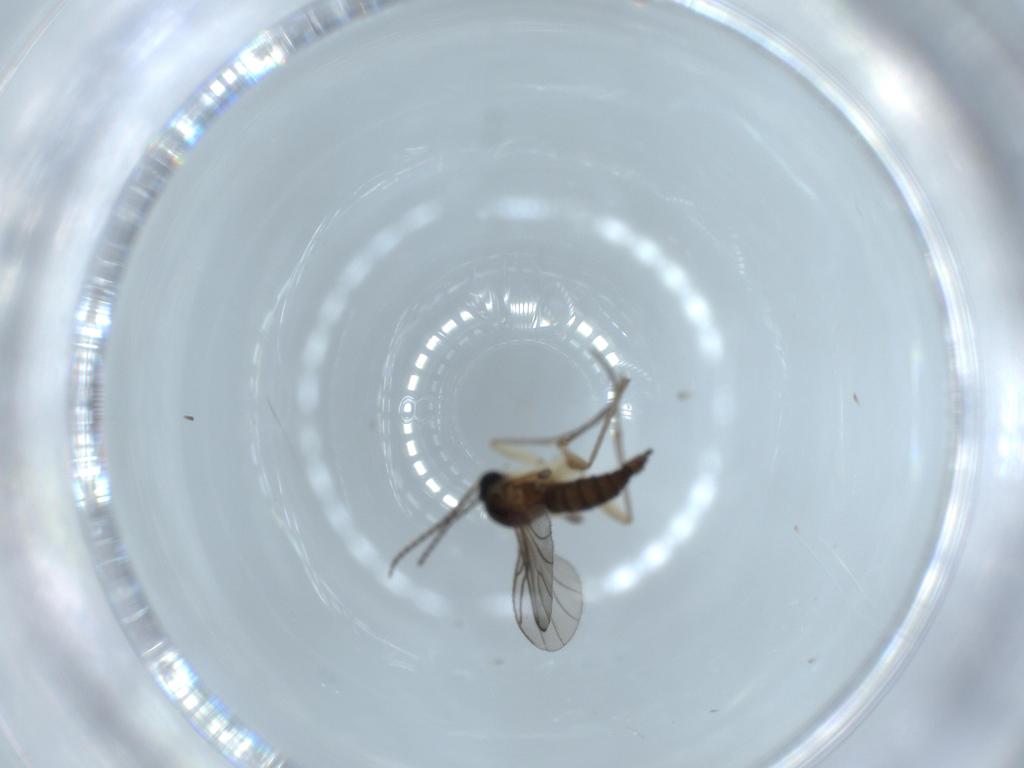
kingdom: Animalia
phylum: Arthropoda
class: Insecta
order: Diptera
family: Sciaridae
